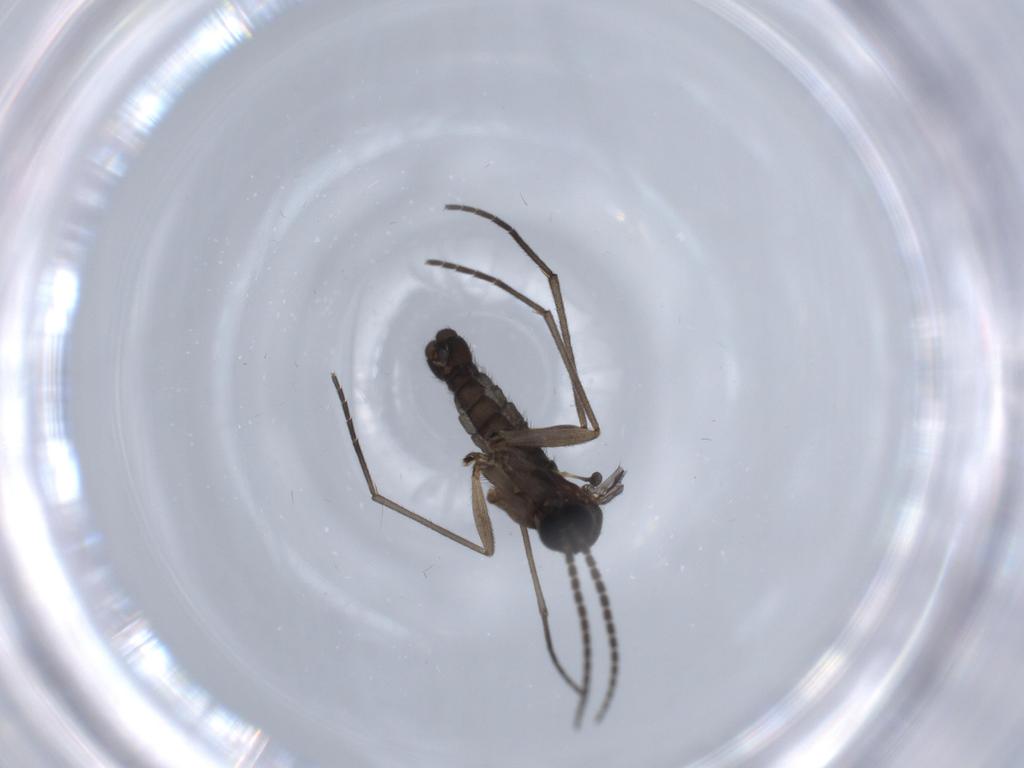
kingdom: Animalia
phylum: Arthropoda
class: Insecta
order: Diptera
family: Sciaridae
